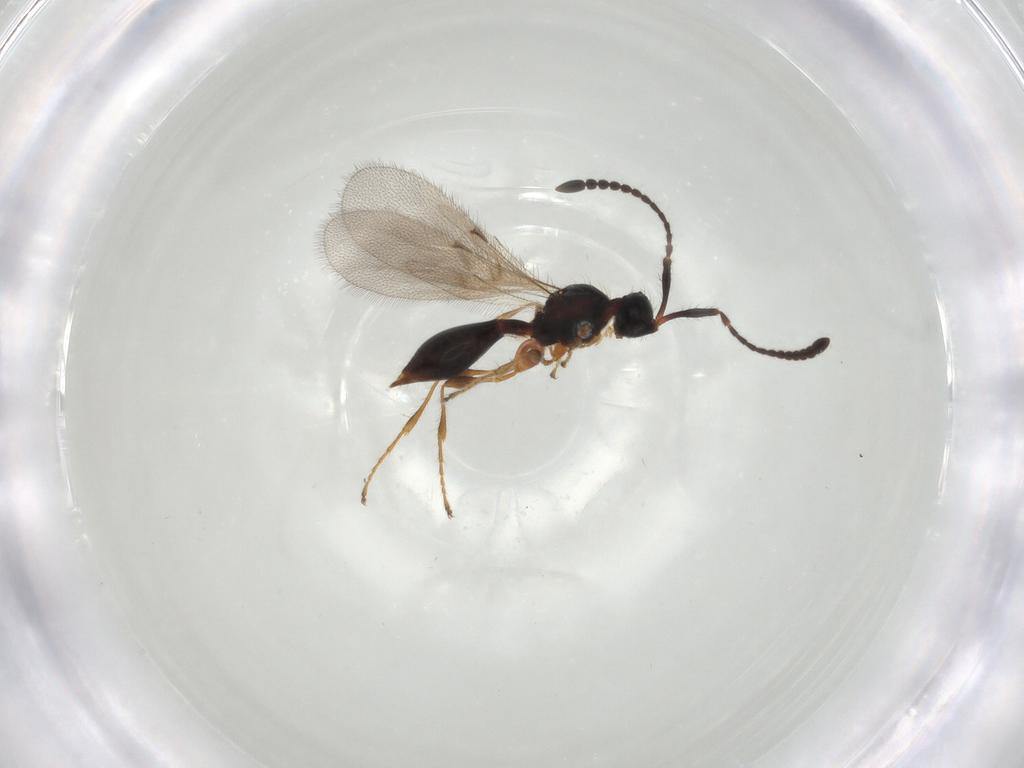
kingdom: Animalia
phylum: Arthropoda
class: Insecta
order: Hymenoptera
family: Diapriidae
